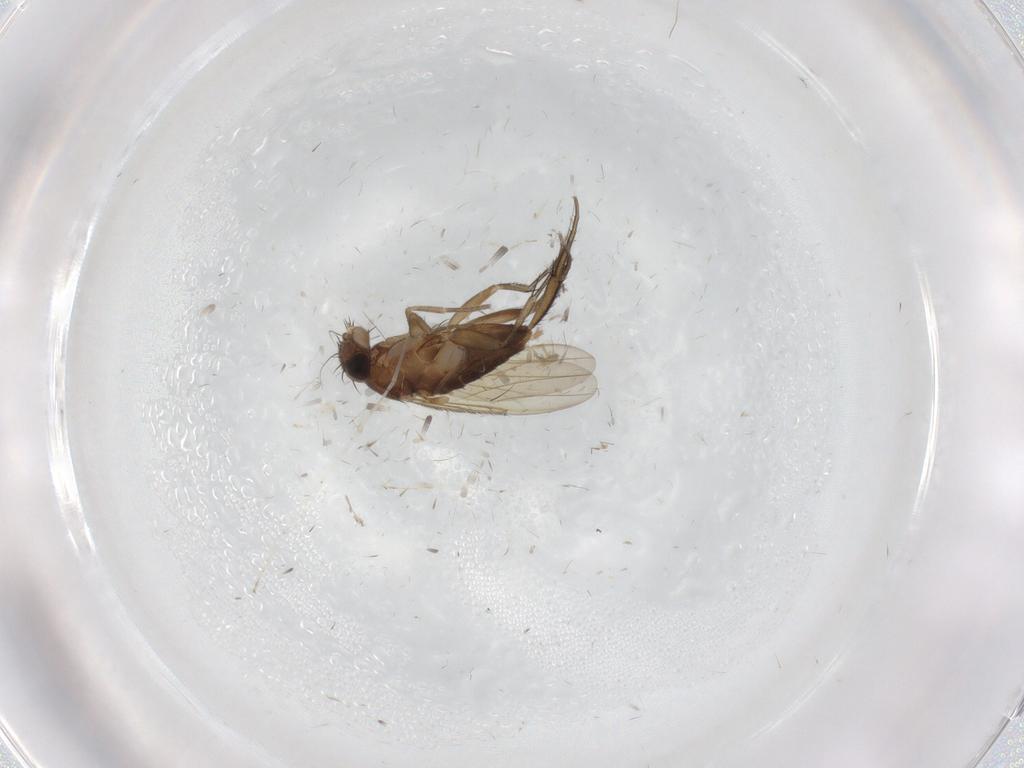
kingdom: Animalia
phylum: Arthropoda
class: Insecta
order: Diptera
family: Phoridae
